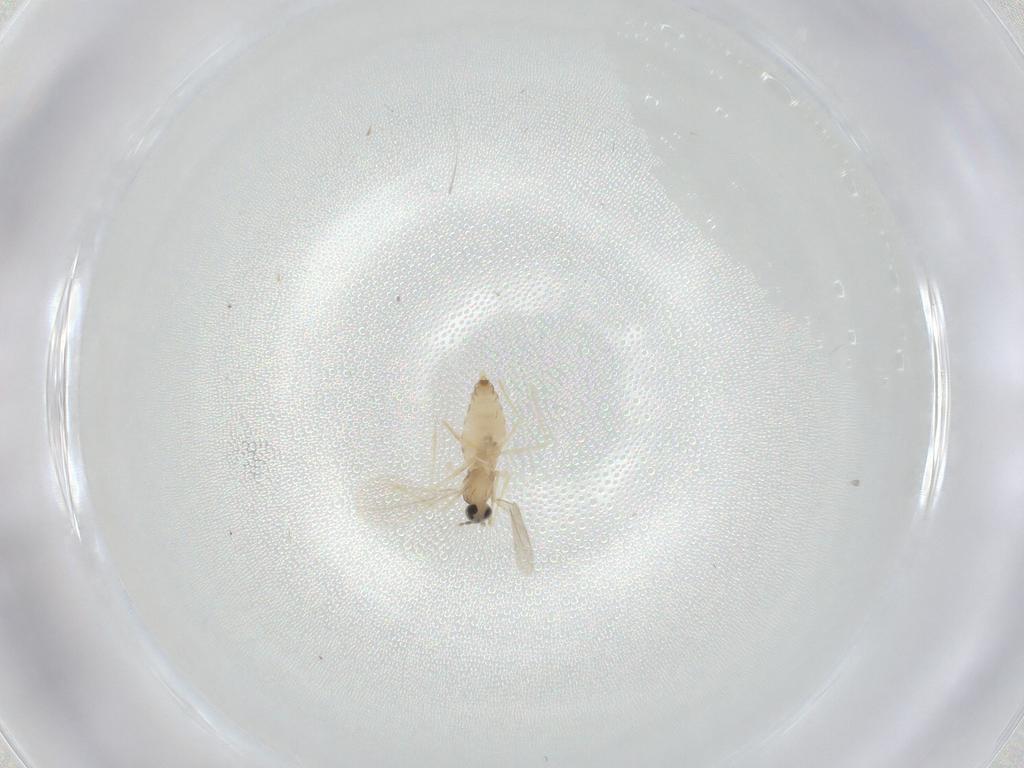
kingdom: Animalia
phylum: Arthropoda
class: Insecta
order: Diptera
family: Cecidomyiidae
